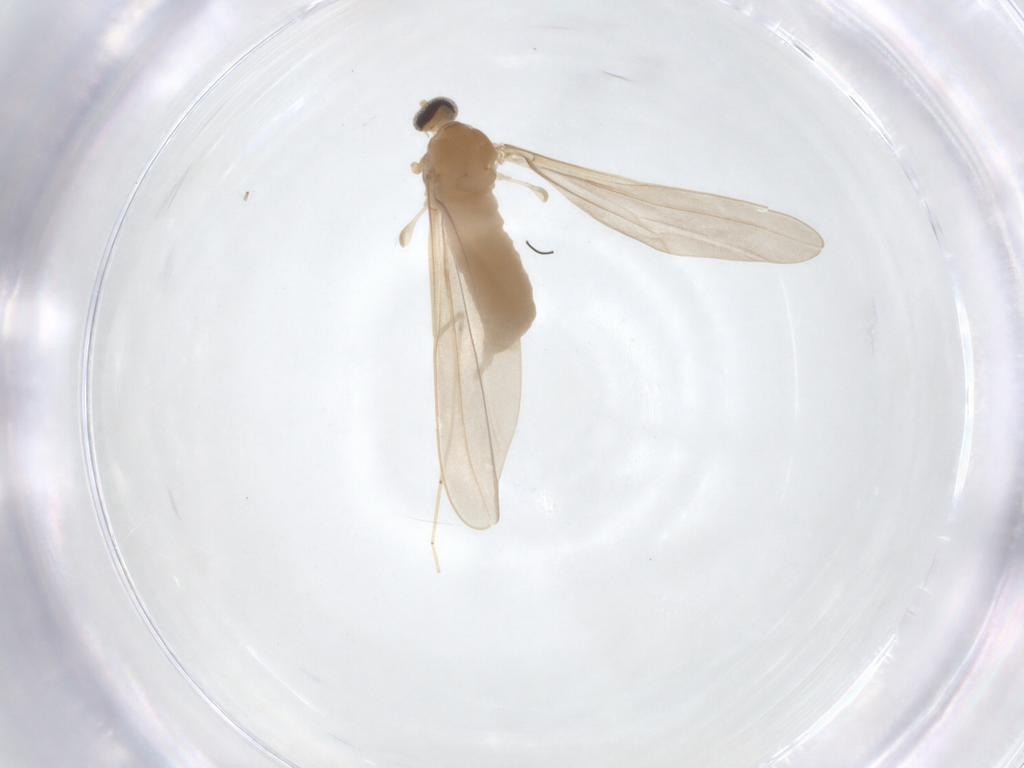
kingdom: Animalia
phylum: Arthropoda
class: Insecta
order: Diptera
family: Cecidomyiidae
